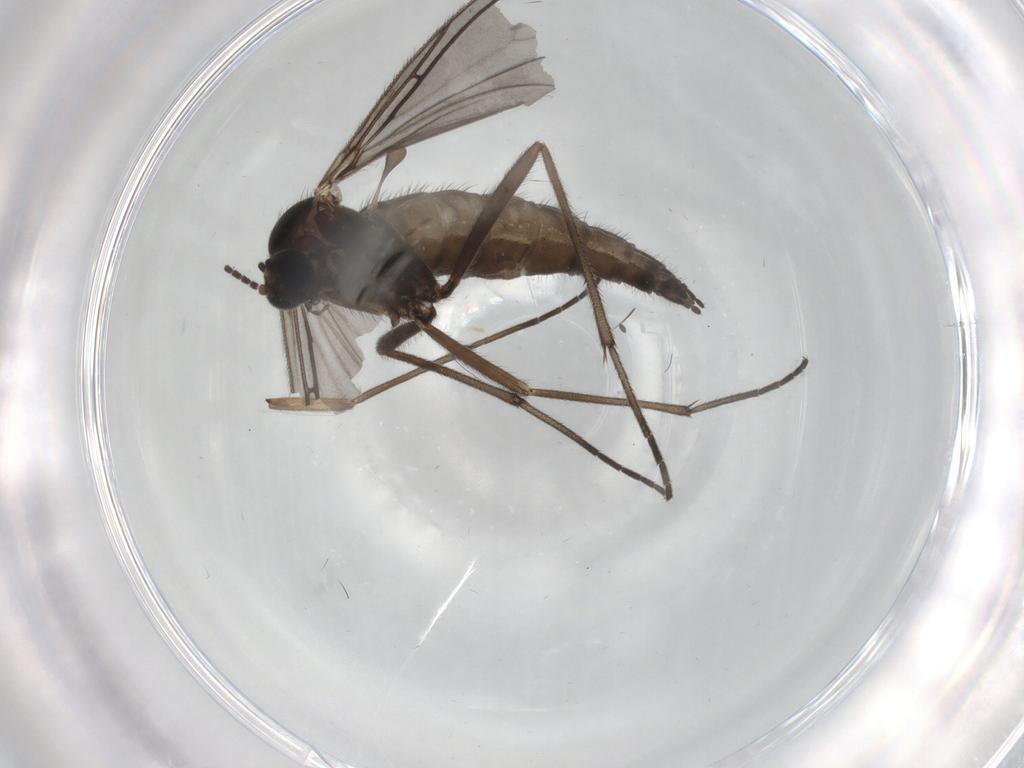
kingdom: Animalia
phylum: Arthropoda
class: Insecta
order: Diptera
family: Sciaridae
